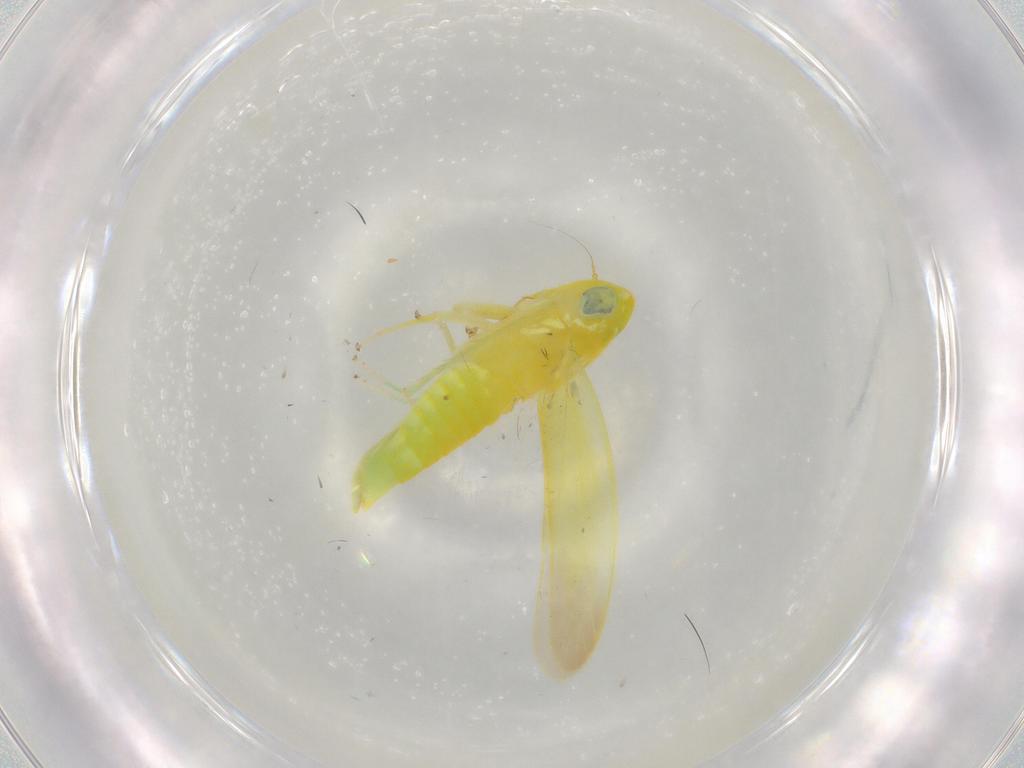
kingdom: Animalia
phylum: Arthropoda
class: Insecta
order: Hemiptera
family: Cicadellidae
